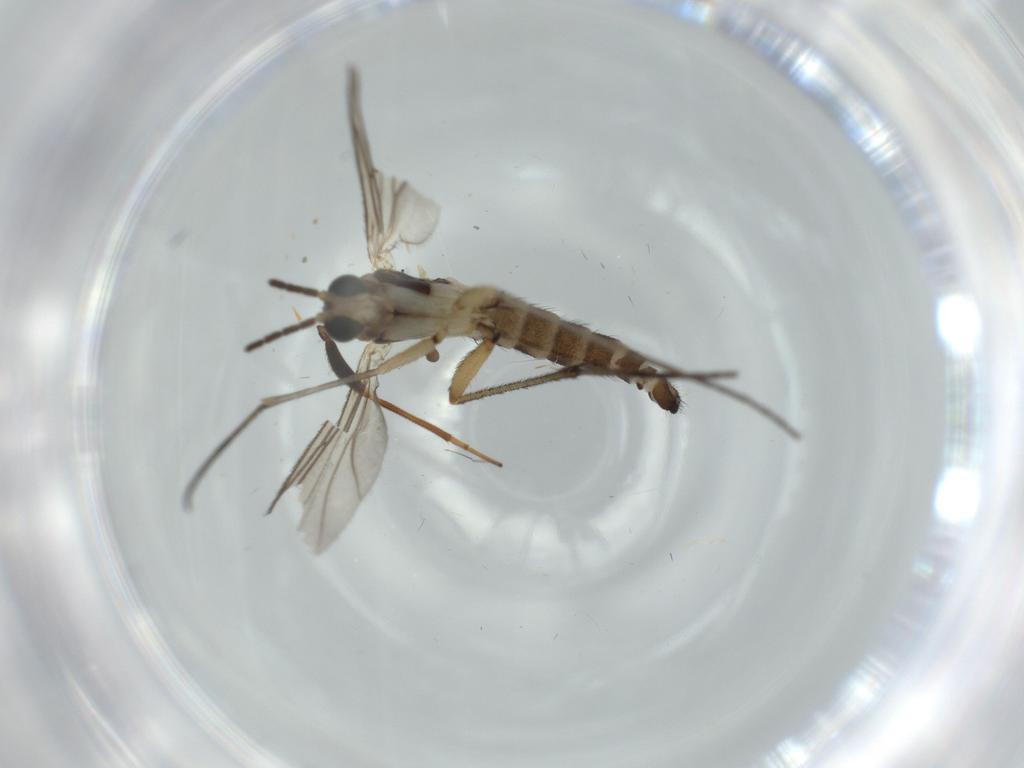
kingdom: Animalia
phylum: Arthropoda
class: Insecta
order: Diptera
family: Sciaridae
